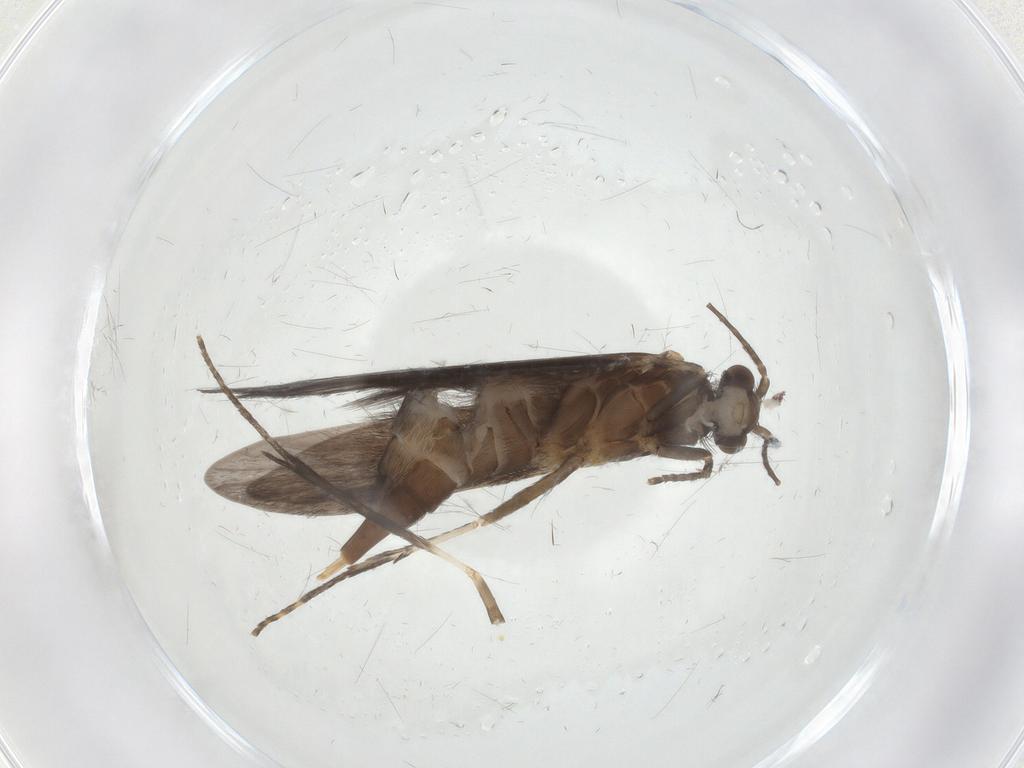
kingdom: Animalia
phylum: Arthropoda
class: Insecta
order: Trichoptera
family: Xiphocentronidae
